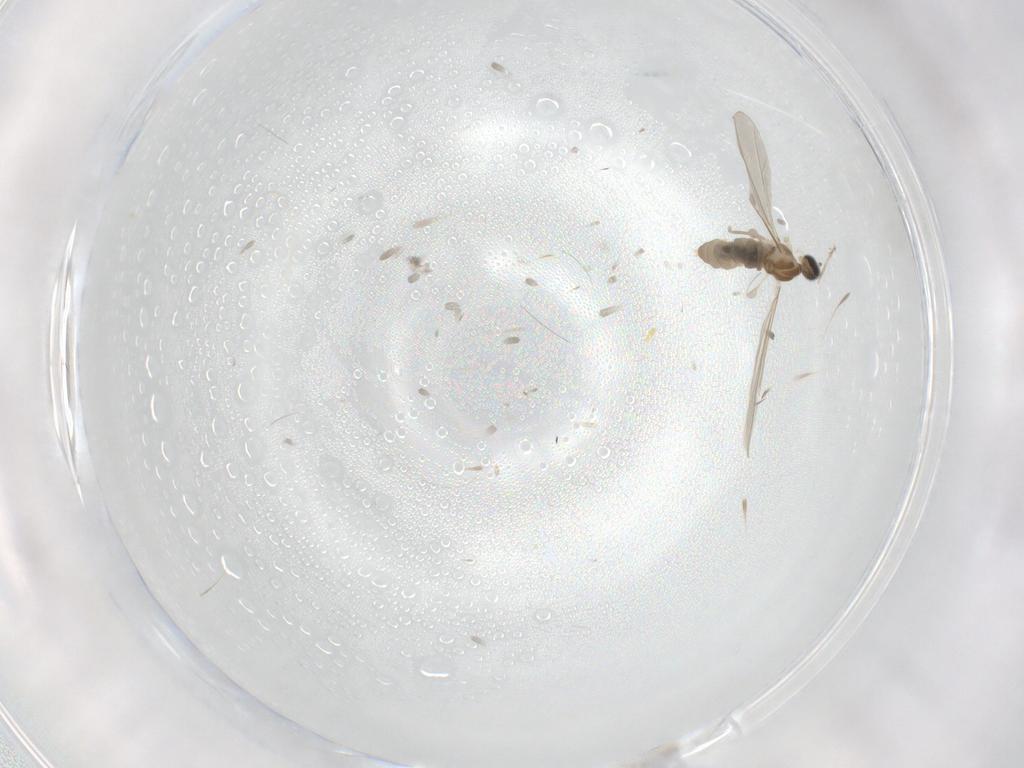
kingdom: Animalia
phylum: Arthropoda
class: Insecta
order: Diptera
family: Cecidomyiidae
